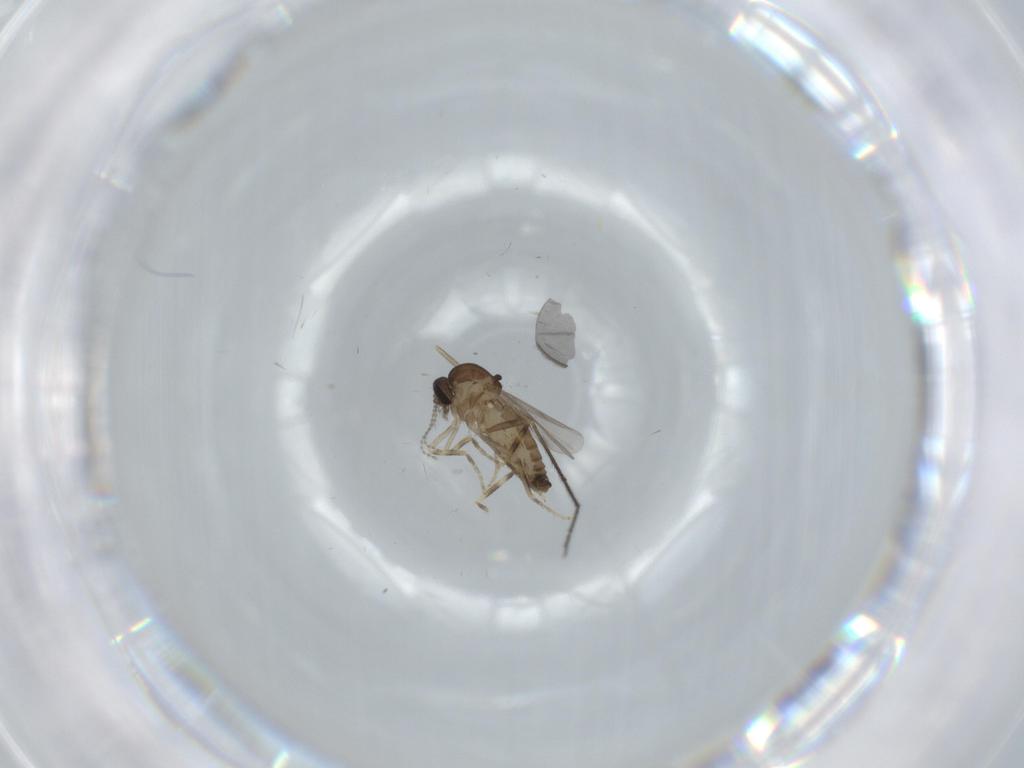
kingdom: Animalia
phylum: Arthropoda
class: Insecta
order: Diptera
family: Ceratopogonidae
